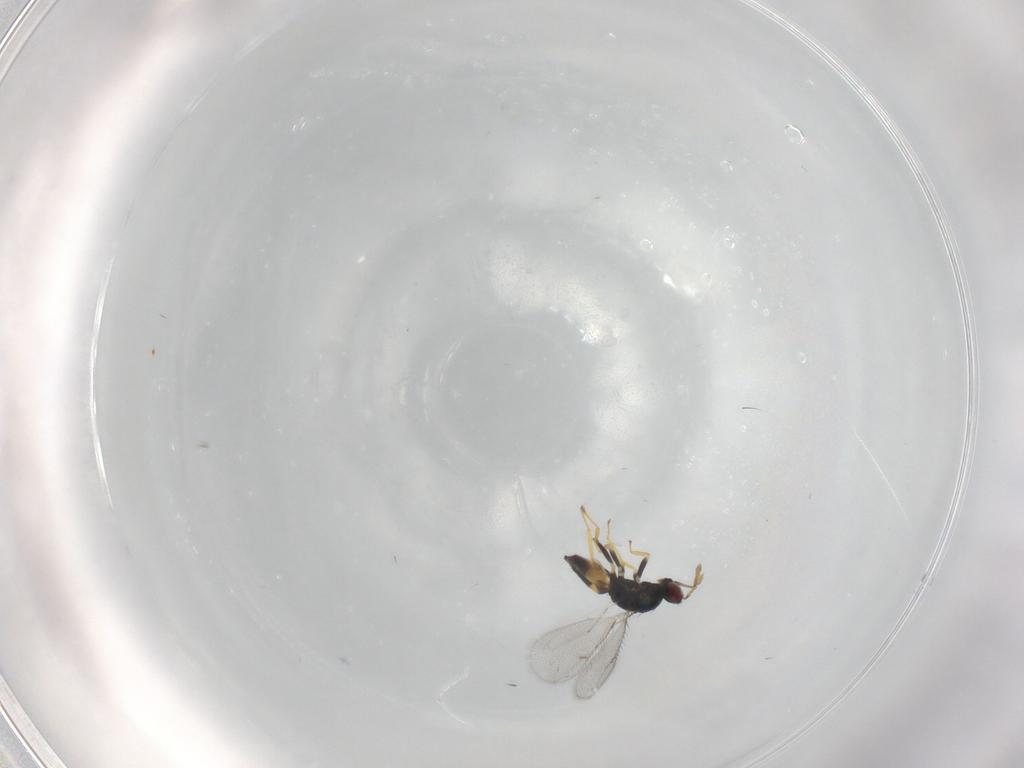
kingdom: Animalia
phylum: Arthropoda
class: Insecta
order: Hymenoptera
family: Eulophidae
